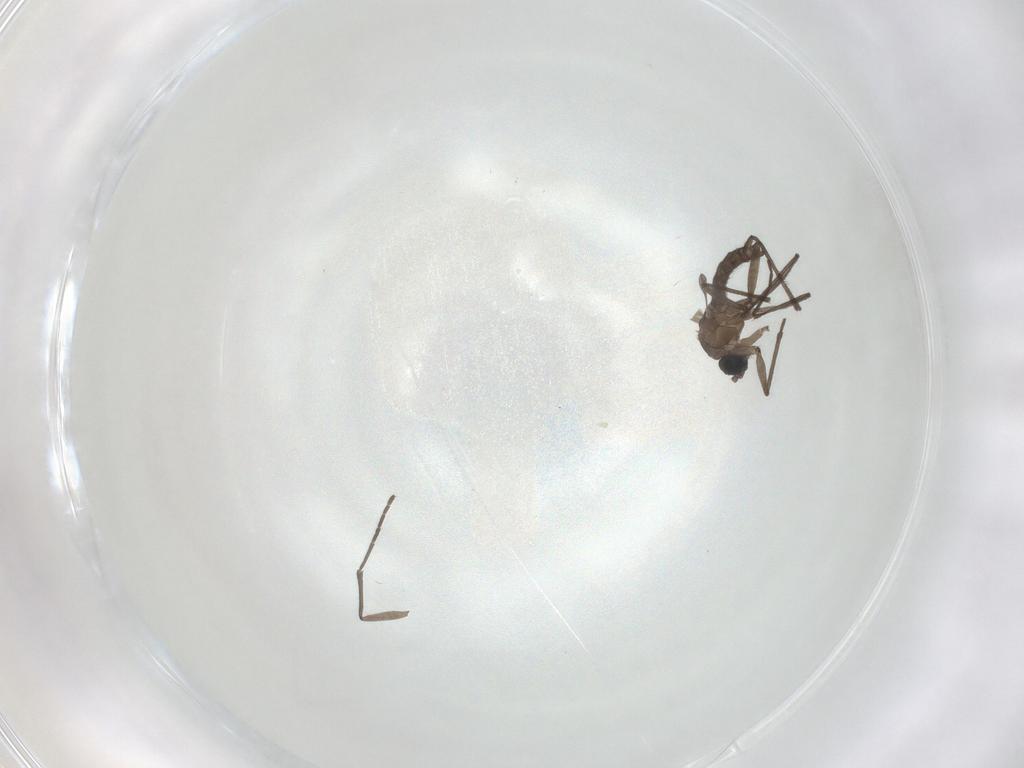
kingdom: Animalia
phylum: Arthropoda
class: Insecta
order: Diptera
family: Sciaridae
